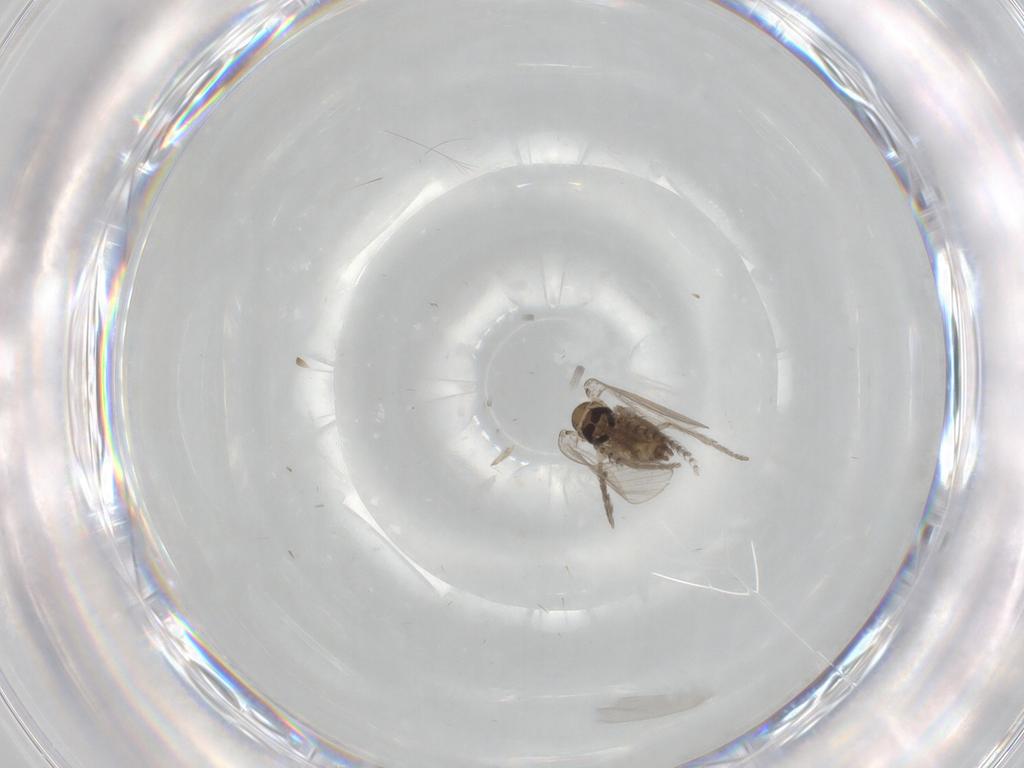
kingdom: Animalia
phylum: Arthropoda
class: Insecta
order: Diptera
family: Psychodidae
